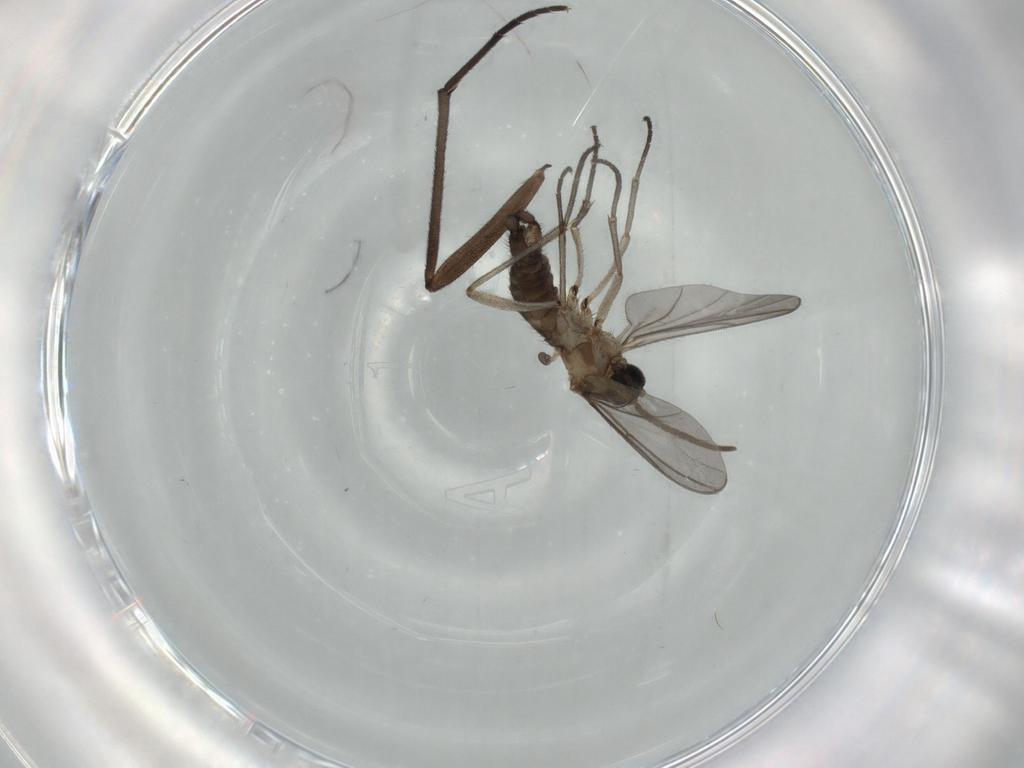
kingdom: Animalia
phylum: Arthropoda
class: Insecta
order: Diptera
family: Sciaridae
